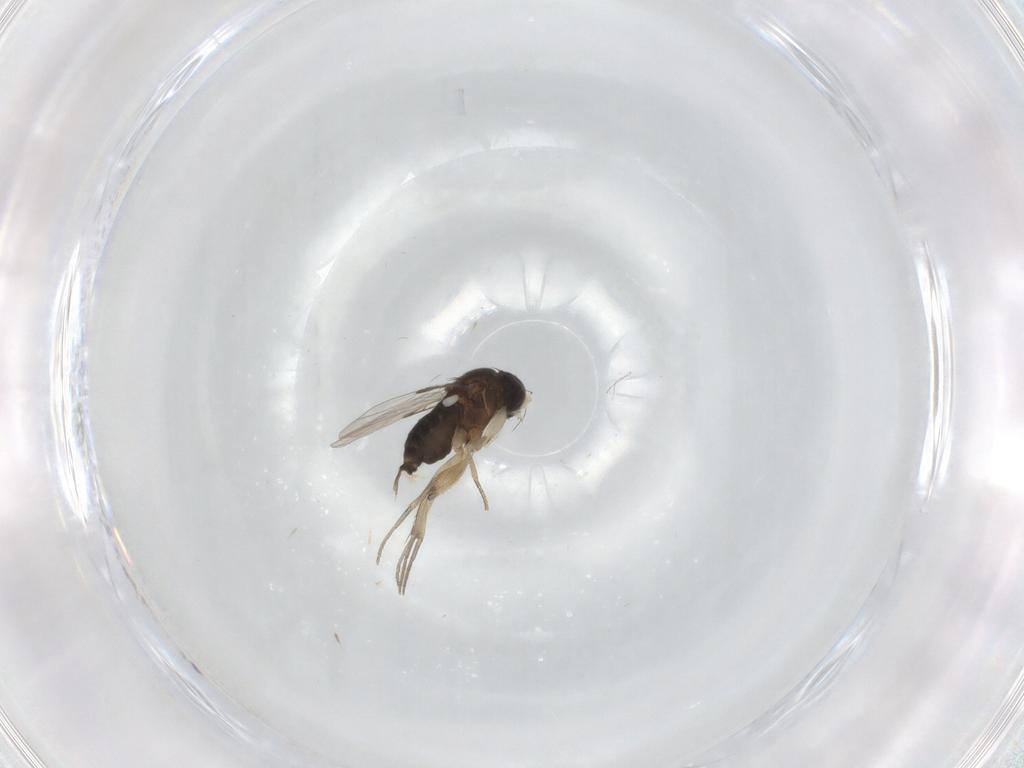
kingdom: Animalia
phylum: Arthropoda
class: Insecta
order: Diptera
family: Phoridae
